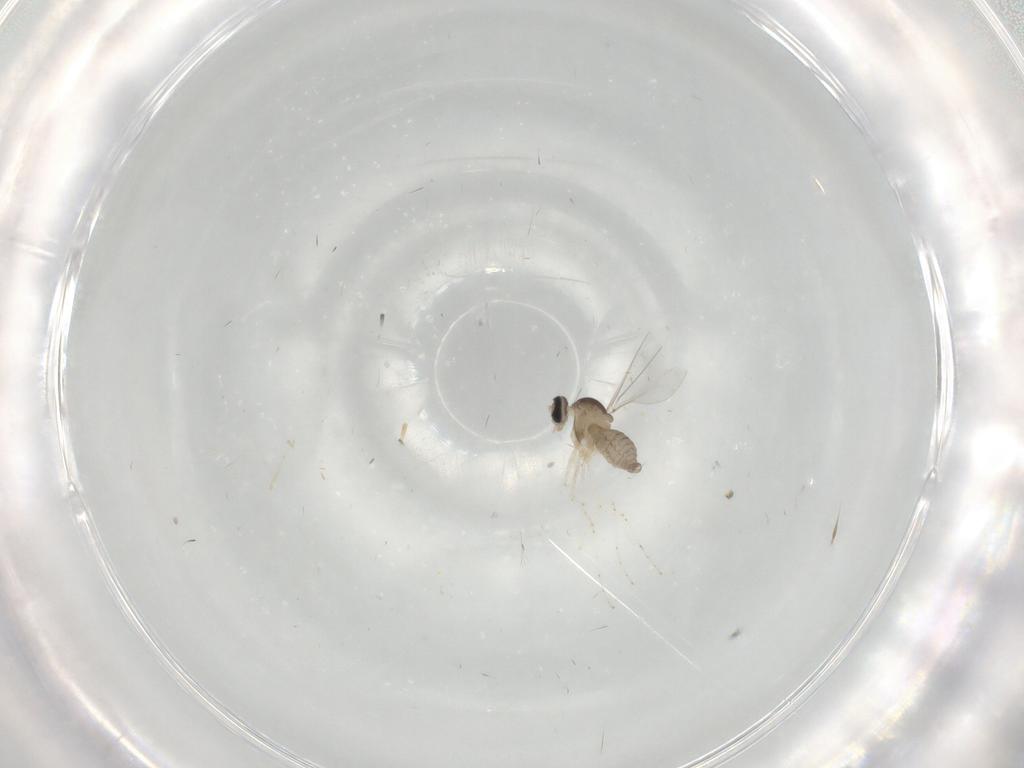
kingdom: Animalia
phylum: Arthropoda
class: Insecta
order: Diptera
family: Cecidomyiidae
